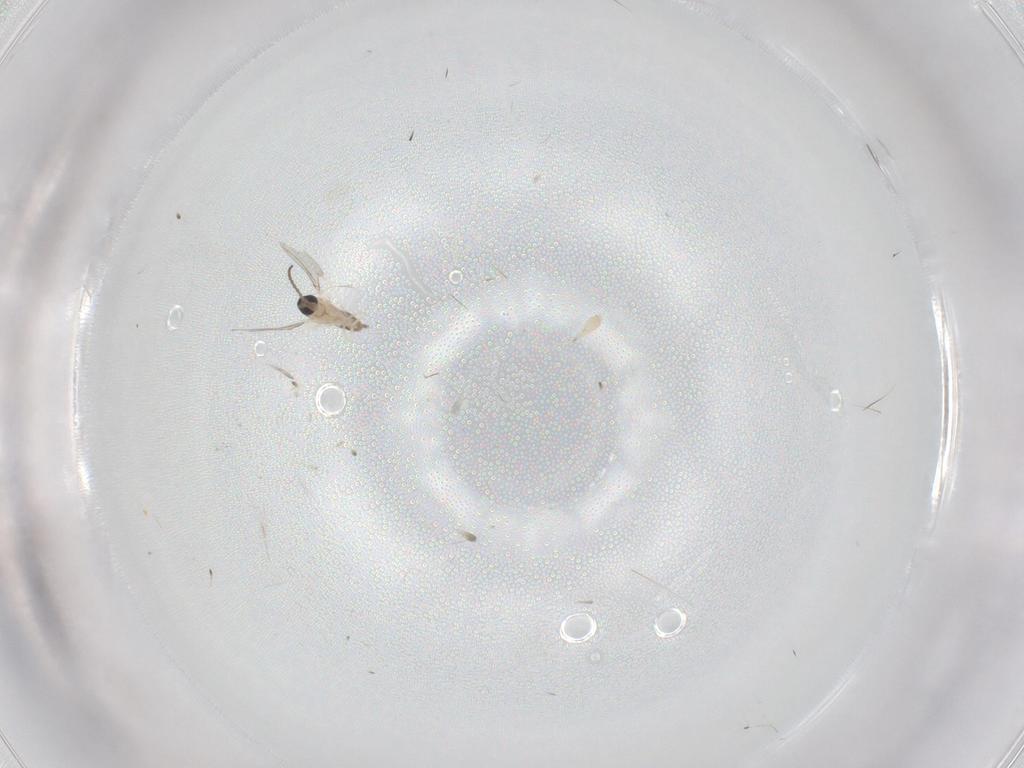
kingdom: Animalia
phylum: Arthropoda
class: Insecta
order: Diptera
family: Cecidomyiidae
